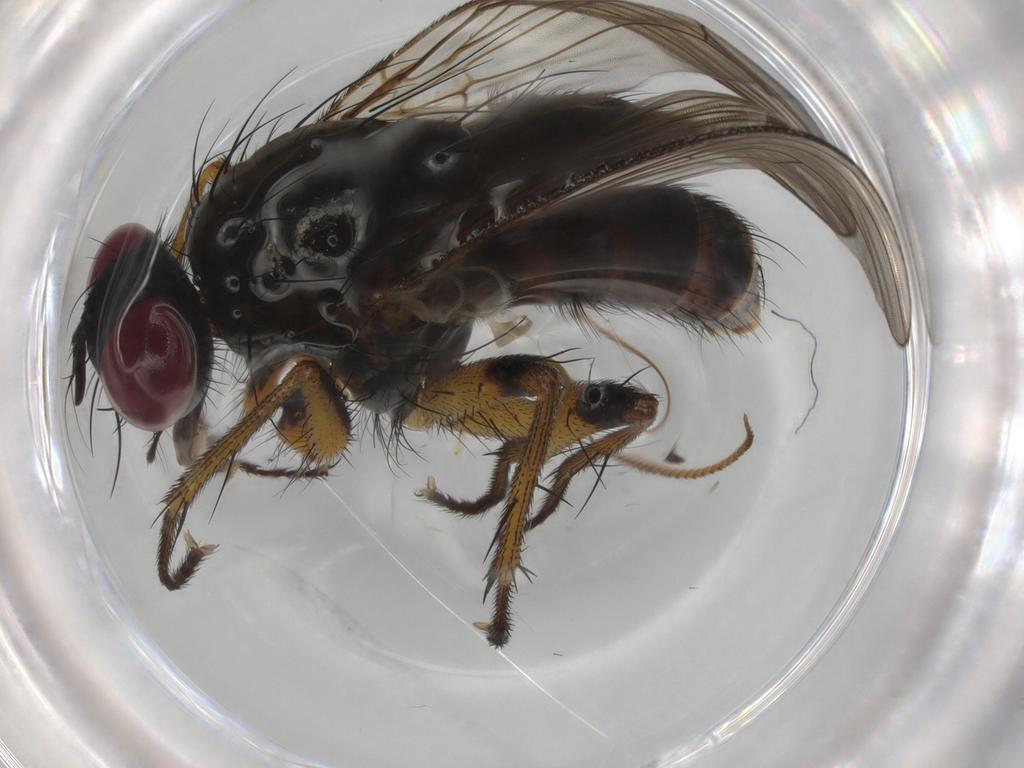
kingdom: Animalia
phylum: Arthropoda
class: Insecta
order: Diptera
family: Muscidae
